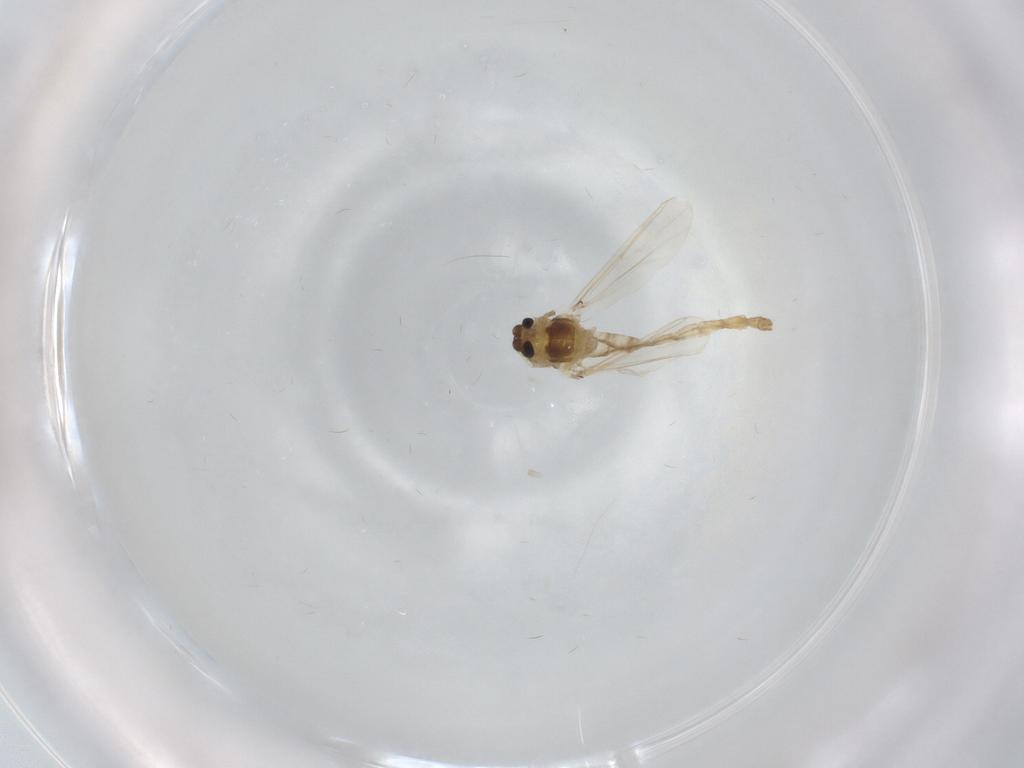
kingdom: Animalia
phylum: Arthropoda
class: Insecta
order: Diptera
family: Chironomidae
